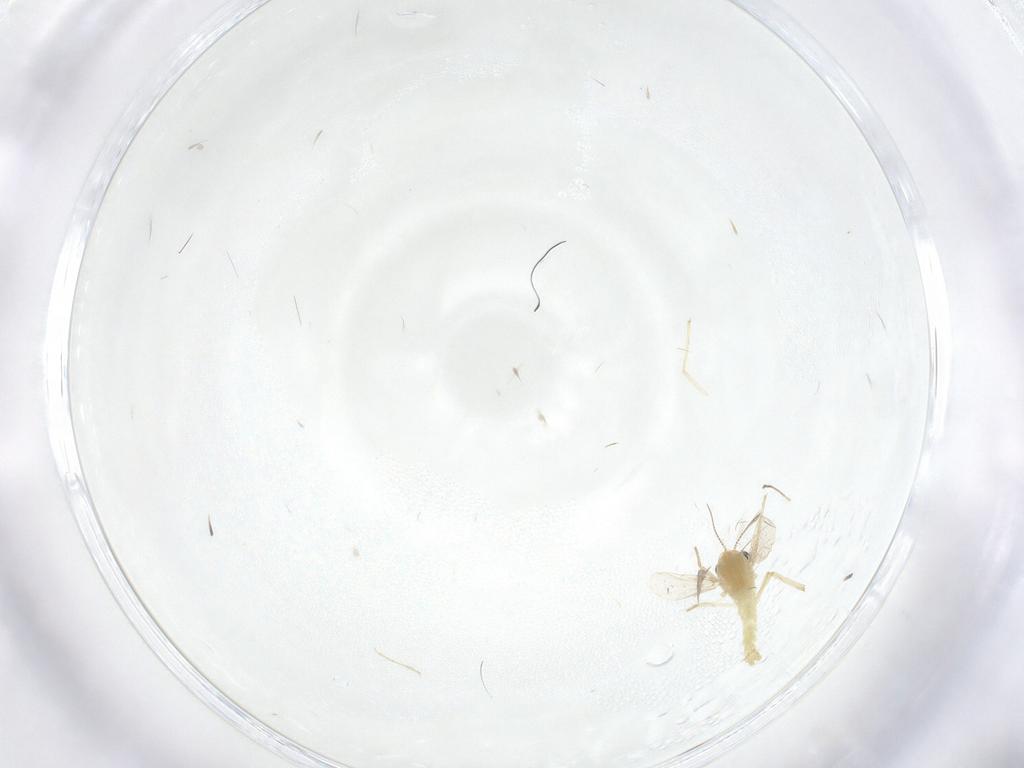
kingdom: Animalia
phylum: Arthropoda
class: Insecta
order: Diptera
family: Chironomidae
